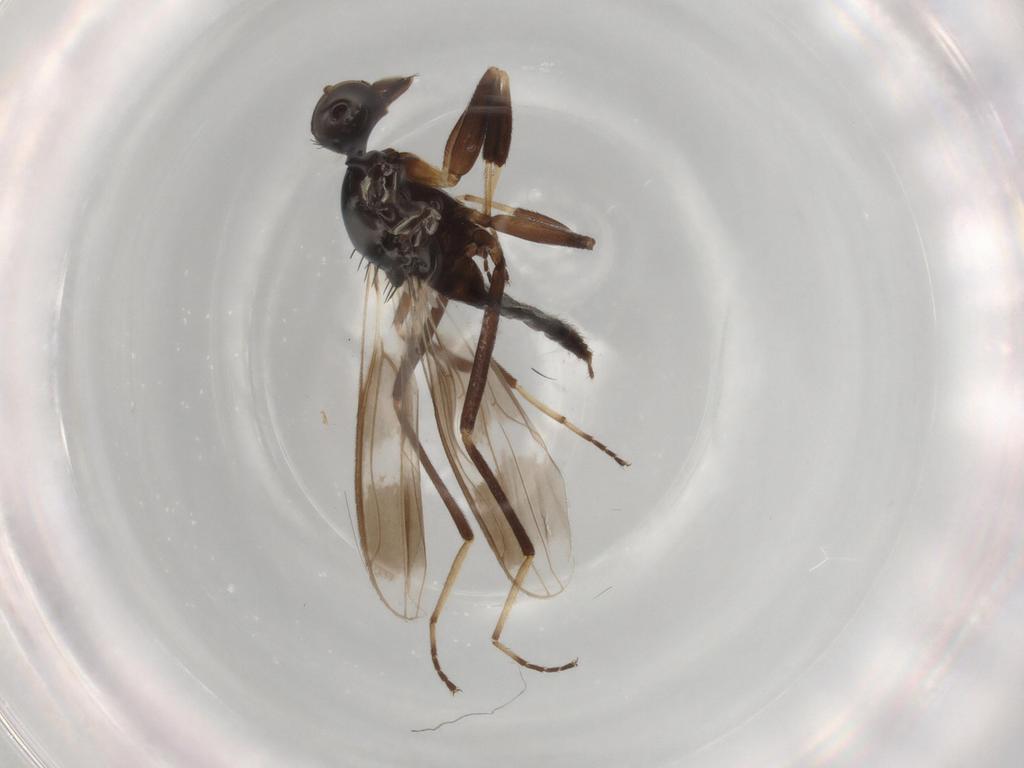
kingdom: Animalia
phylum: Arthropoda
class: Insecta
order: Diptera
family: Hybotidae
